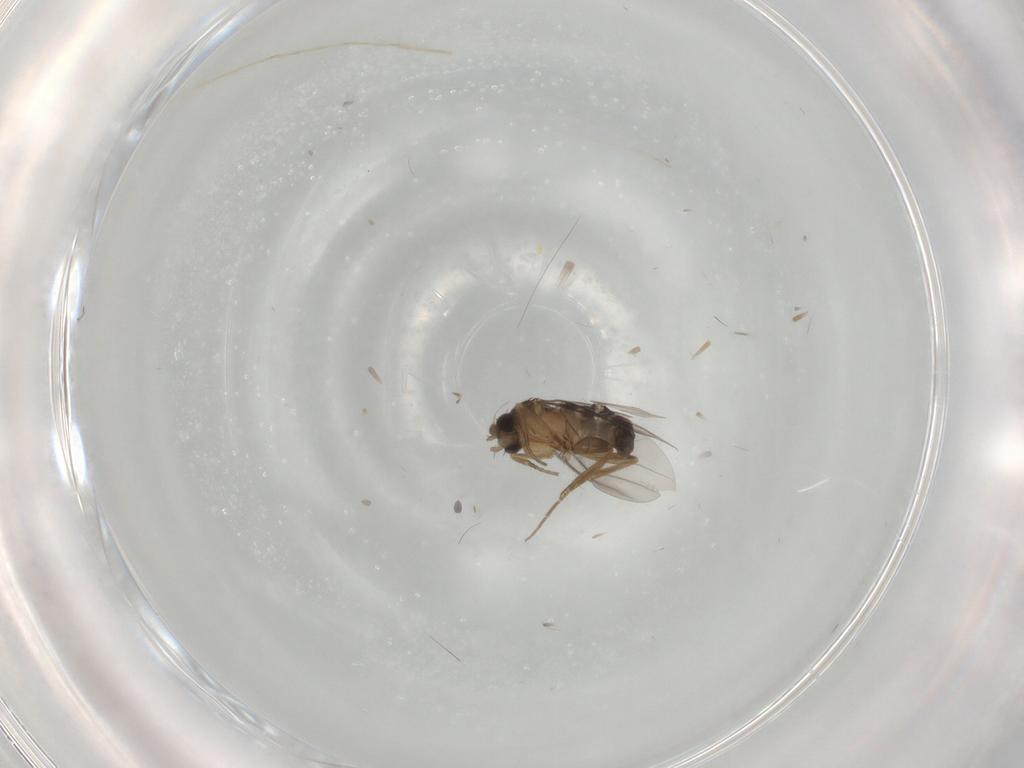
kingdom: Animalia
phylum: Arthropoda
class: Insecta
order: Diptera
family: Chironomidae
